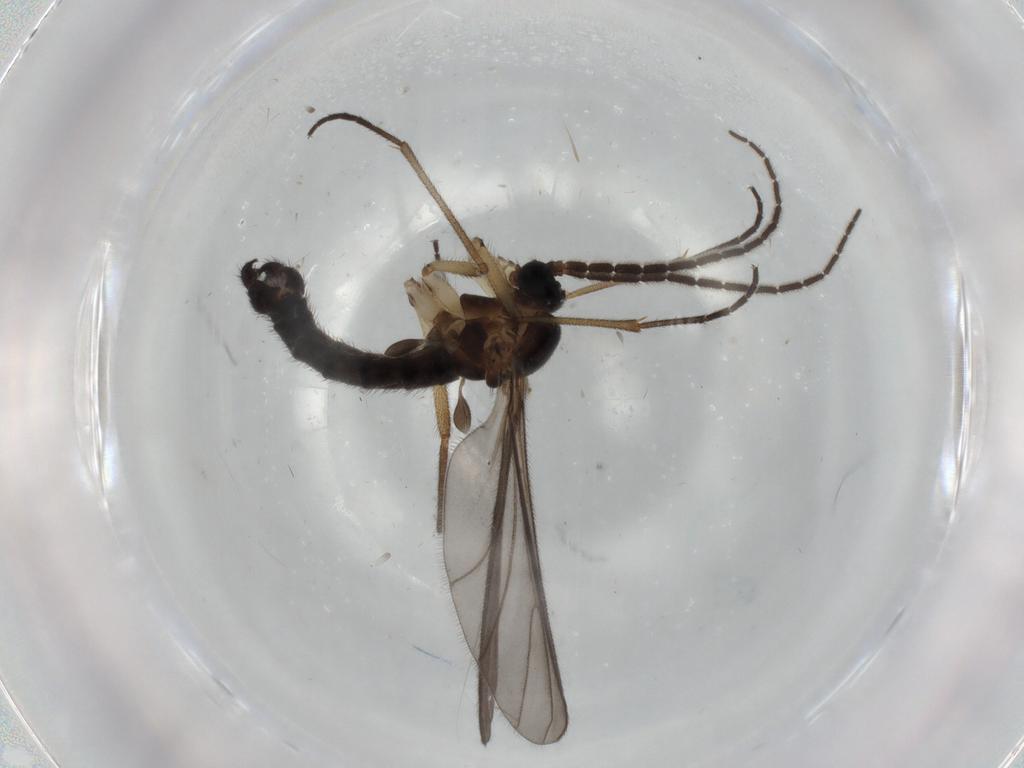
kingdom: Animalia
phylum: Arthropoda
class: Insecta
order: Diptera
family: Sciaridae
